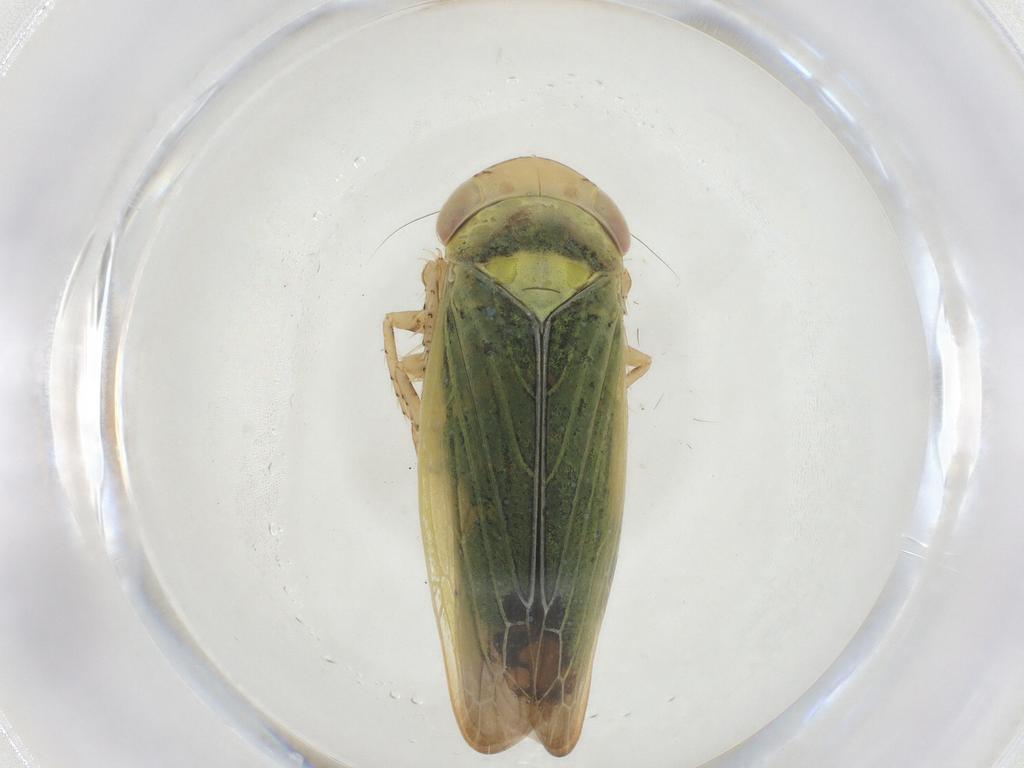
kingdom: Animalia
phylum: Arthropoda
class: Insecta
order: Hemiptera
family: Cicadellidae
